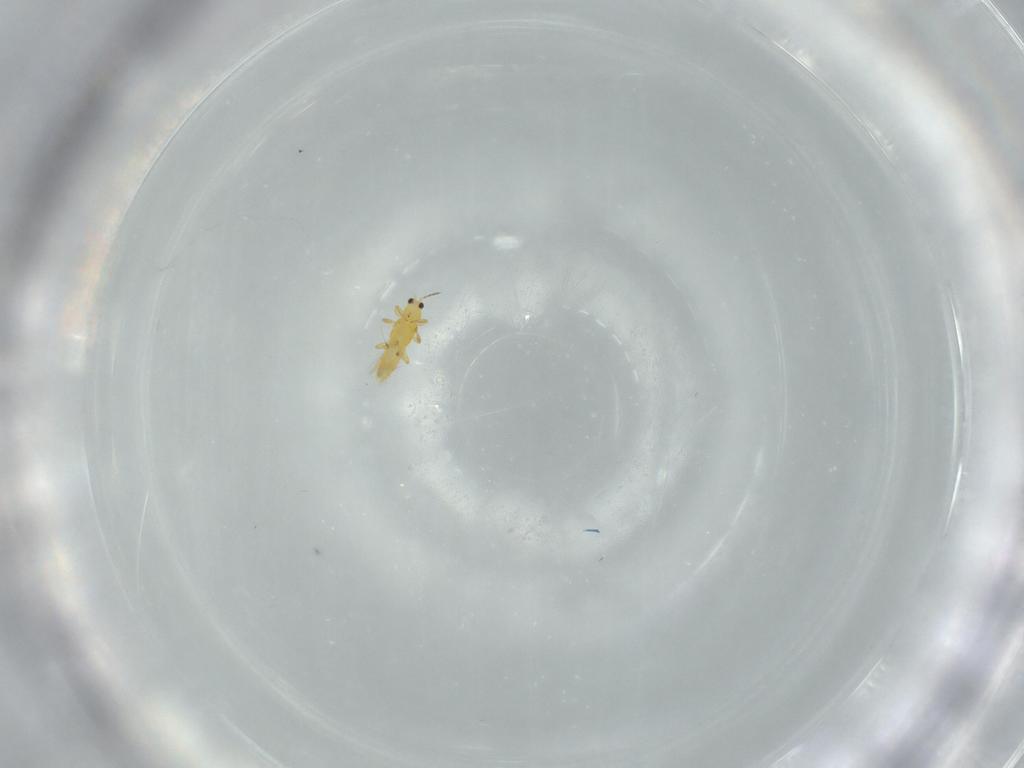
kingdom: Animalia
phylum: Arthropoda
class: Insecta
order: Thysanoptera
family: Thripidae
